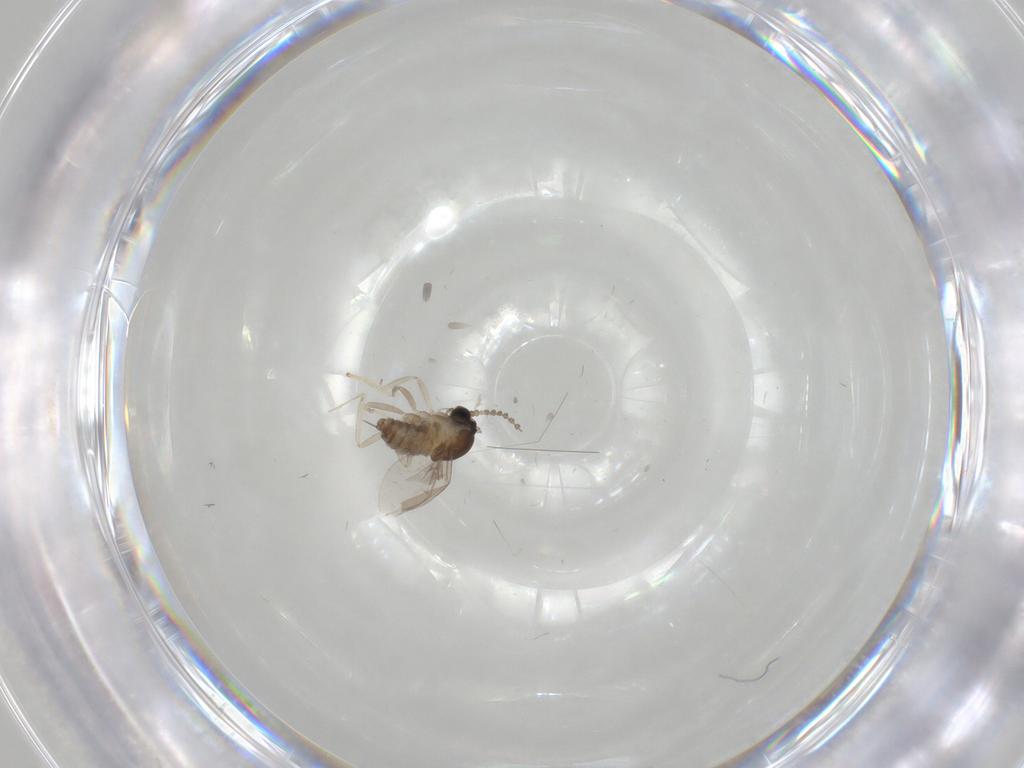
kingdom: Animalia
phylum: Arthropoda
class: Insecta
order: Diptera
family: Cecidomyiidae
